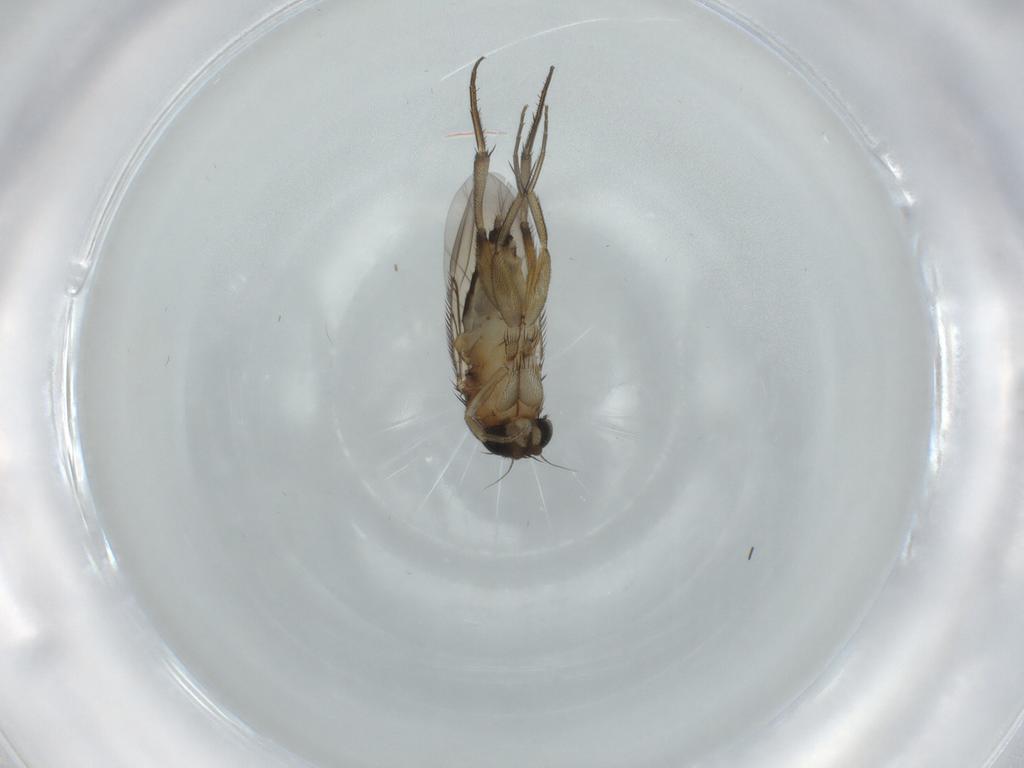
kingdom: Animalia
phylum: Arthropoda
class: Insecta
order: Diptera
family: Phoridae
